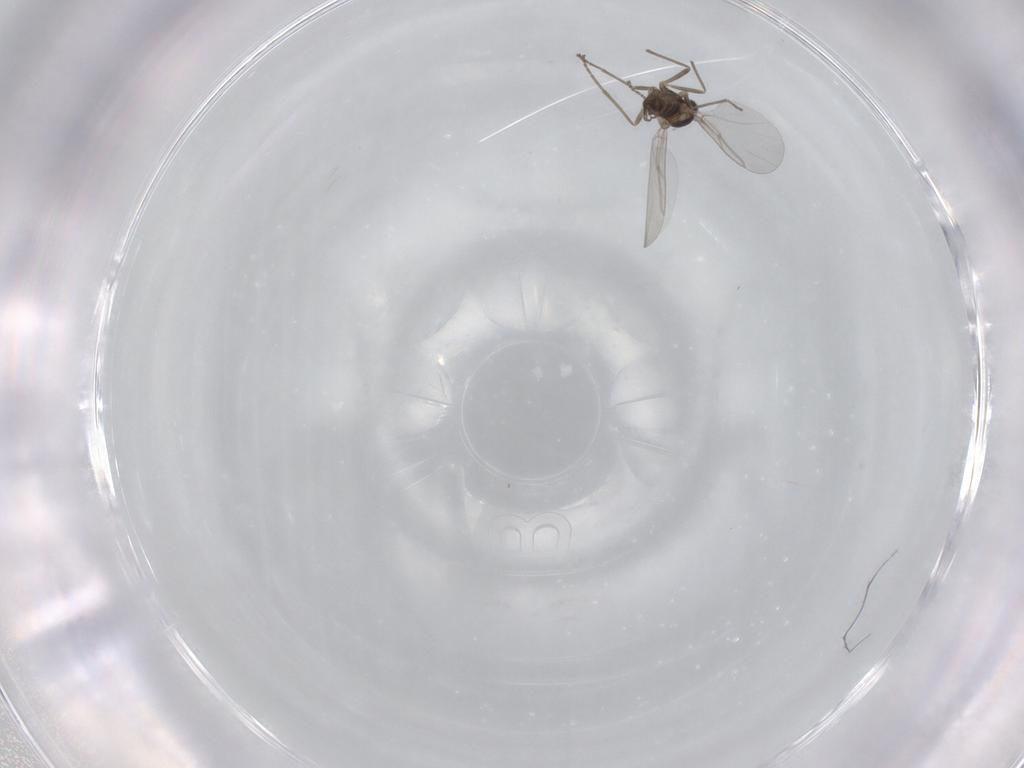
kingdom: Animalia
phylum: Arthropoda
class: Insecta
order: Diptera
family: Cecidomyiidae
